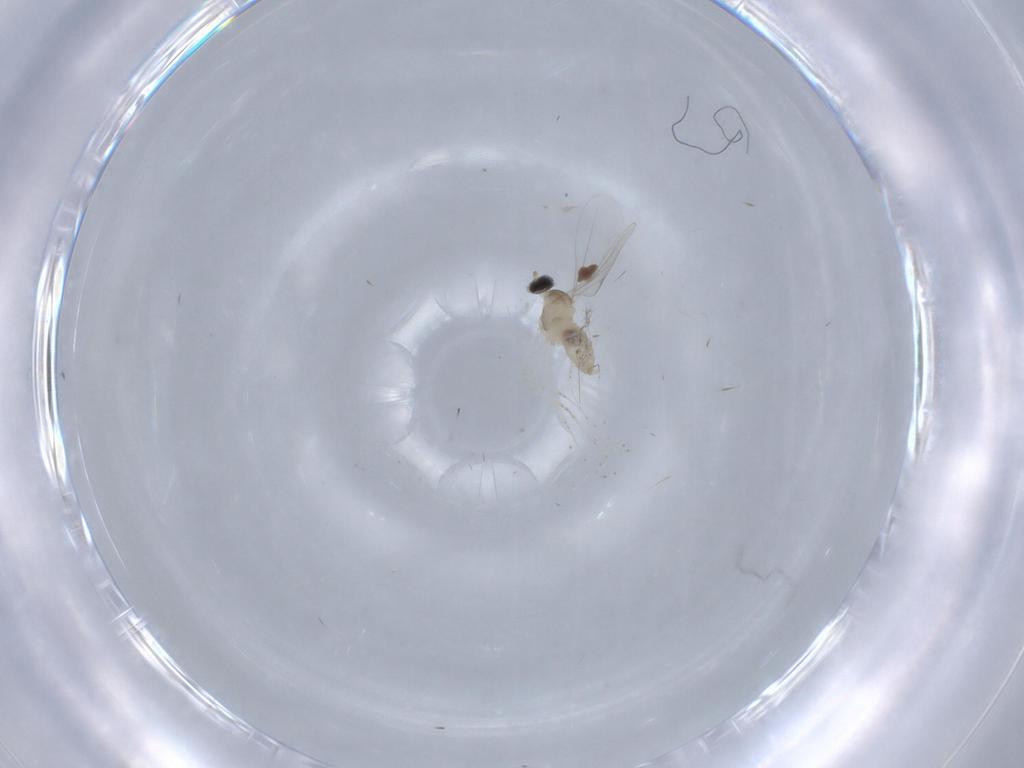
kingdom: Animalia
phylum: Arthropoda
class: Insecta
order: Diptera
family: Cecidomyiidae
